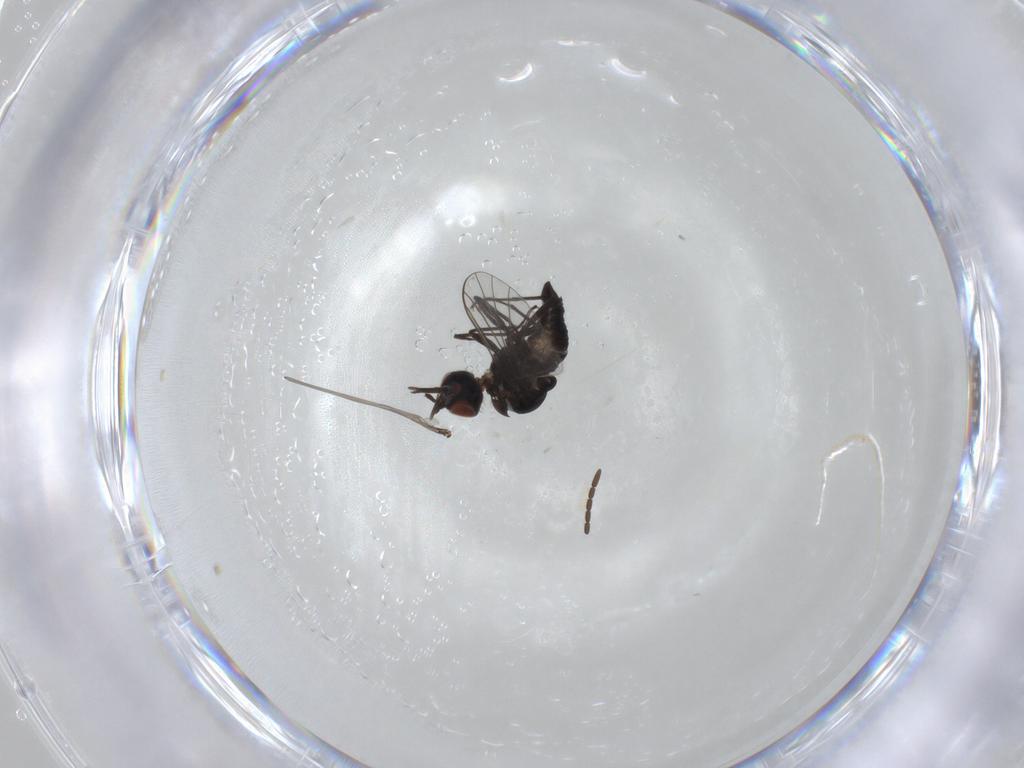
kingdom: Animalia
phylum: Arthropoda
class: Insecta
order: Diptera
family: Bombyliidae
